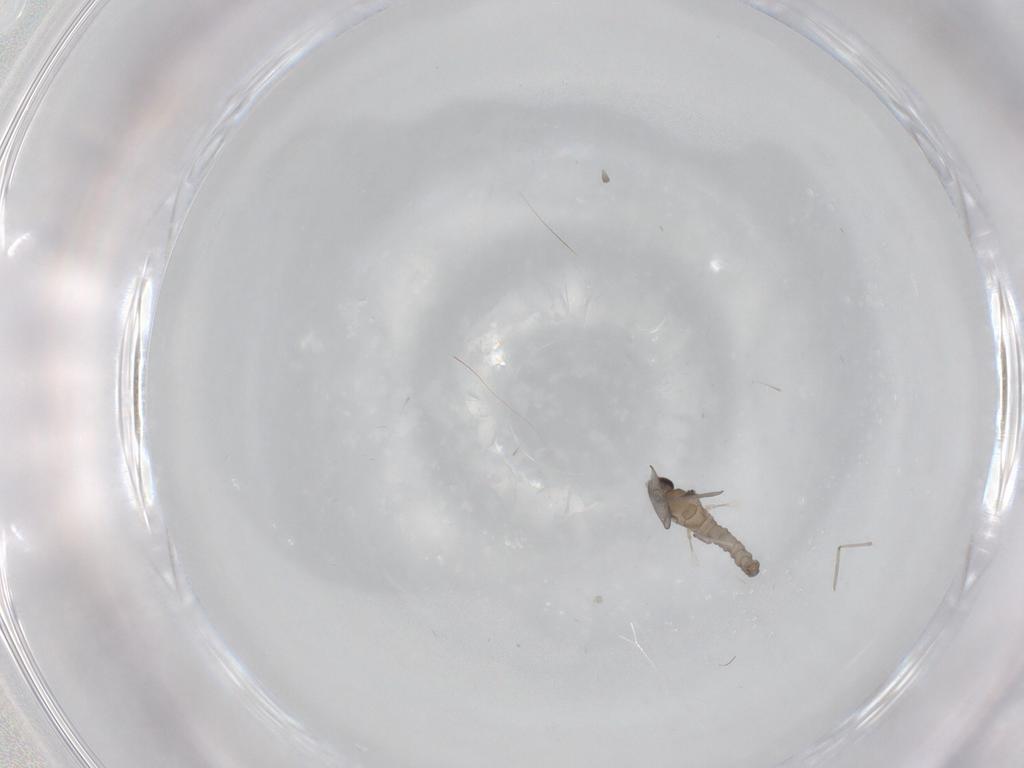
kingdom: Animalia
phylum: Arthropoda
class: Insecta
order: Diptera
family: Cecidomyiidae
